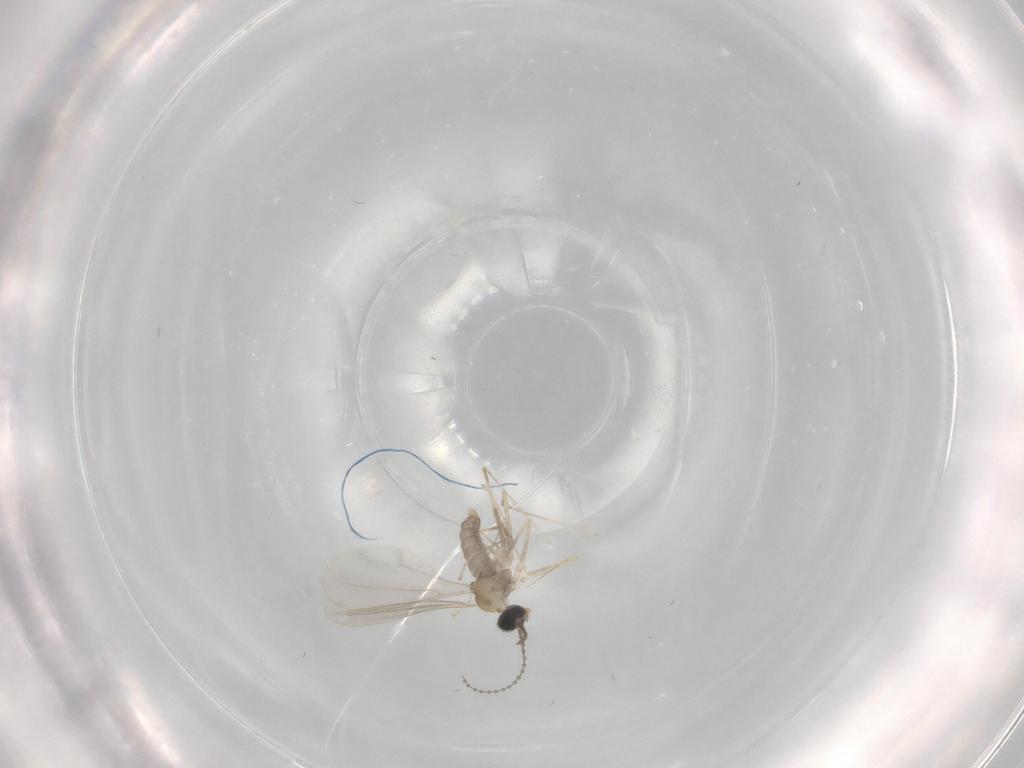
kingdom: Animalia
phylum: Arthropoda
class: Insecta
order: Diptera
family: Cecidomyiidae
